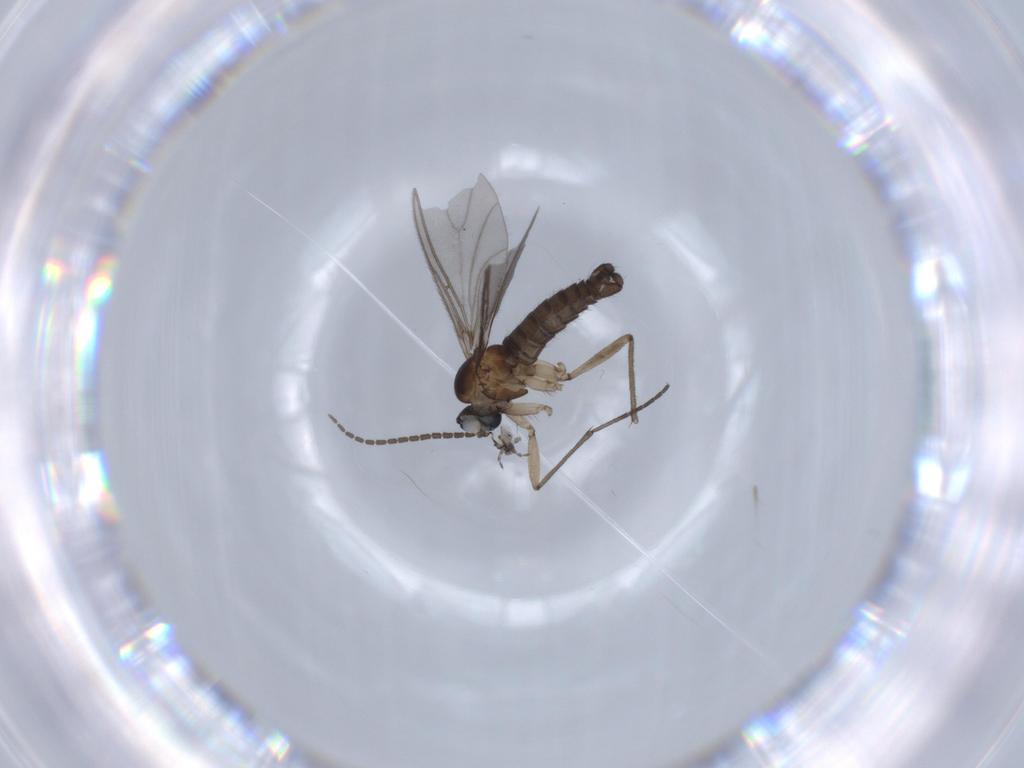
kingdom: Animalia
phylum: Arthropoda
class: Insecta
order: Diptera
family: Sciaridae
